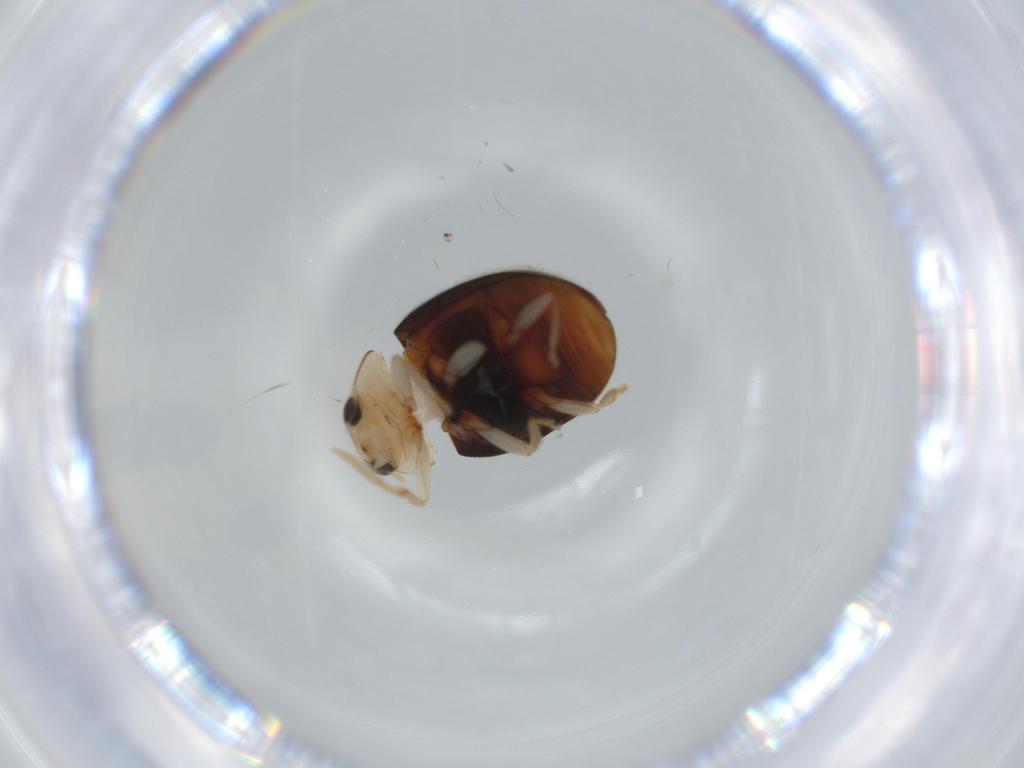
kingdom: Animalia
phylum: Arthropoda
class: Insecta
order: Coleoptera
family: Coccinellidae
